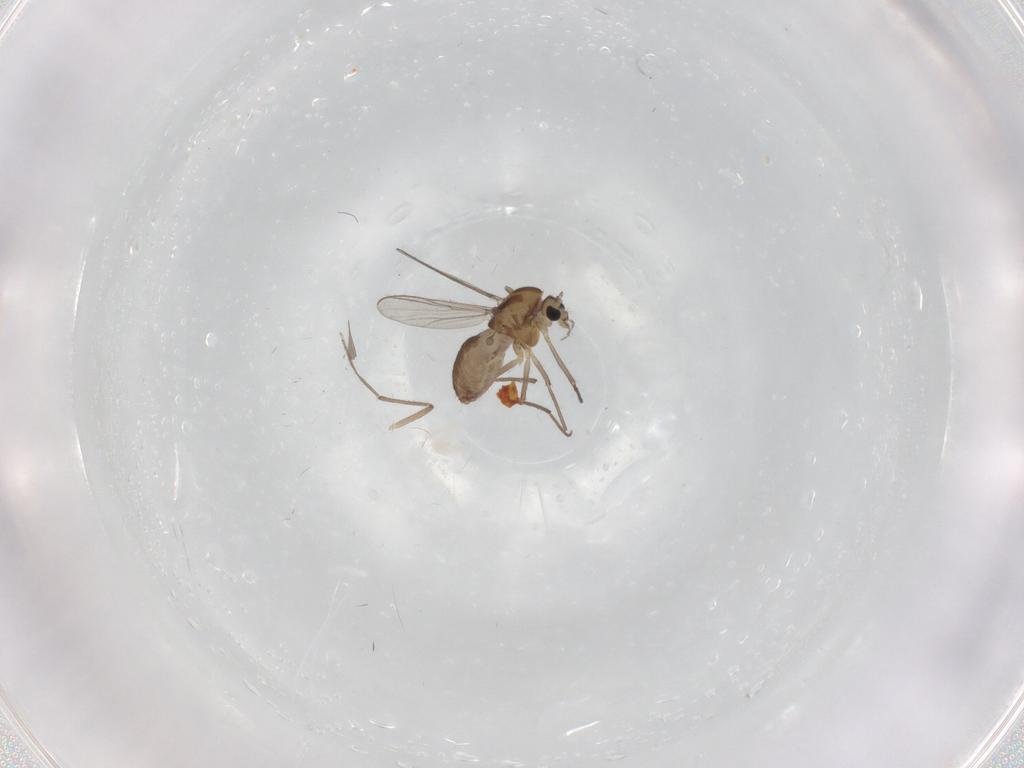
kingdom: Animalia
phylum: Arthropoda
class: Insecta
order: Diptera
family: Chironomidae
